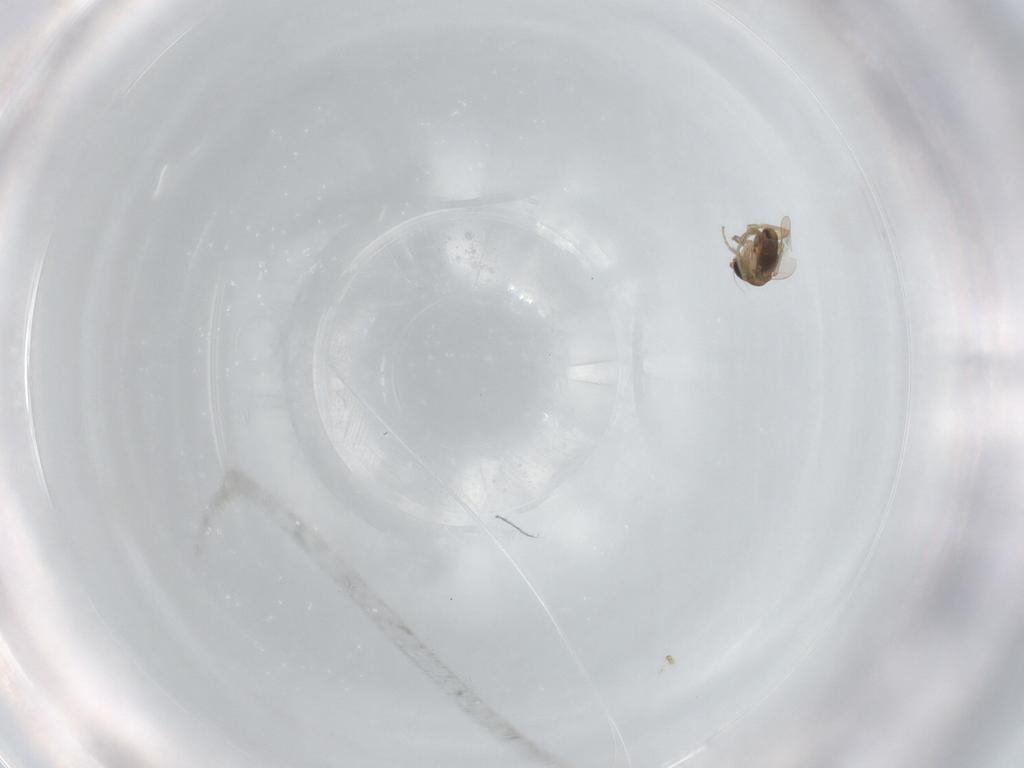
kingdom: Animalia
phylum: Arthropoda
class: Insecta
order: Diptera
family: Phoridae
